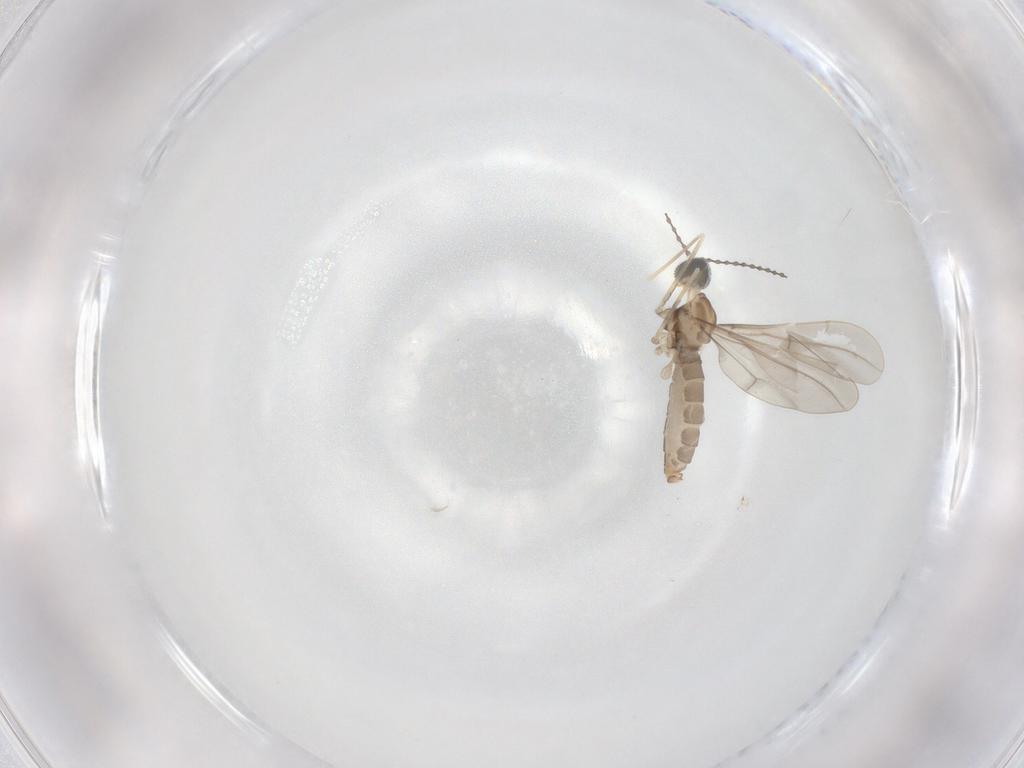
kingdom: Animalia
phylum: Arthropoda
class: Insecta
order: Diptera
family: Cecidomyiidae
